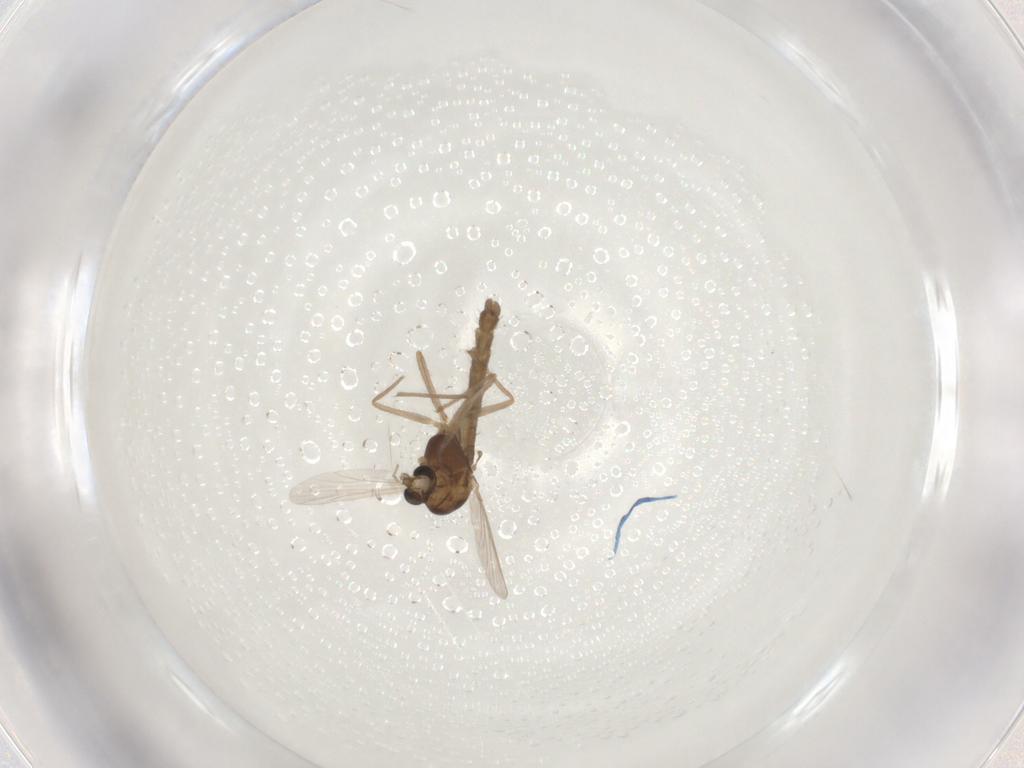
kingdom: Animalia
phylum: Arthropoda
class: Insecta
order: Diptera
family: Chironomidae
